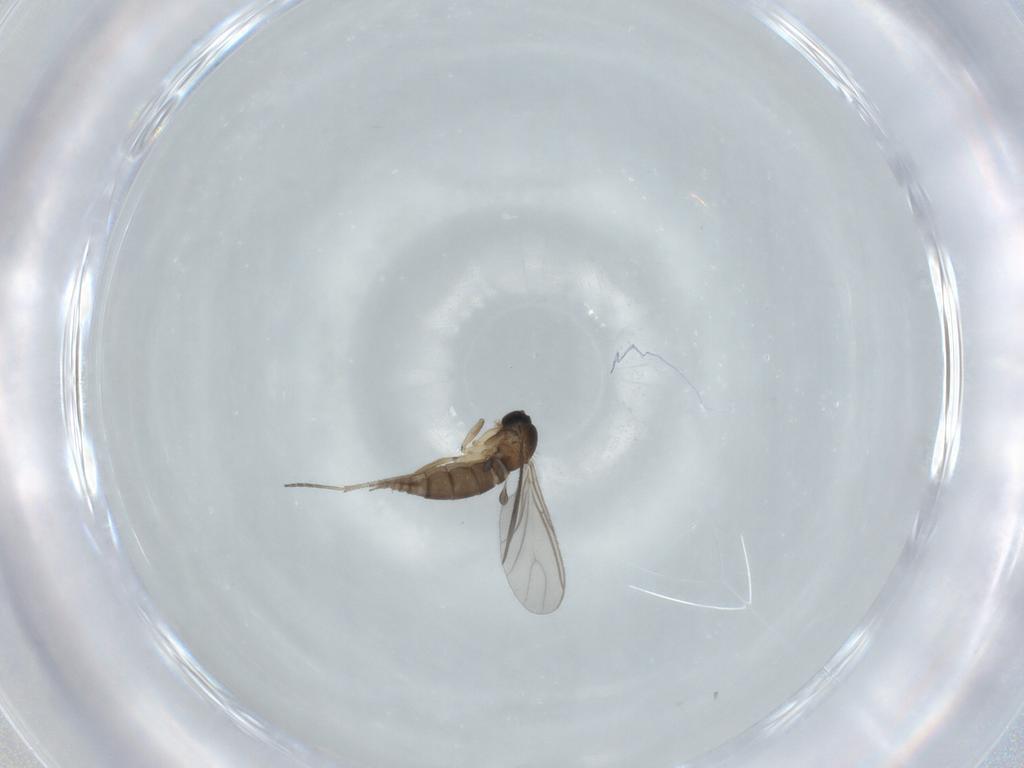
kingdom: Animalia
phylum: Arthropoda
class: Insecta
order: Diptera
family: Sciaridae
